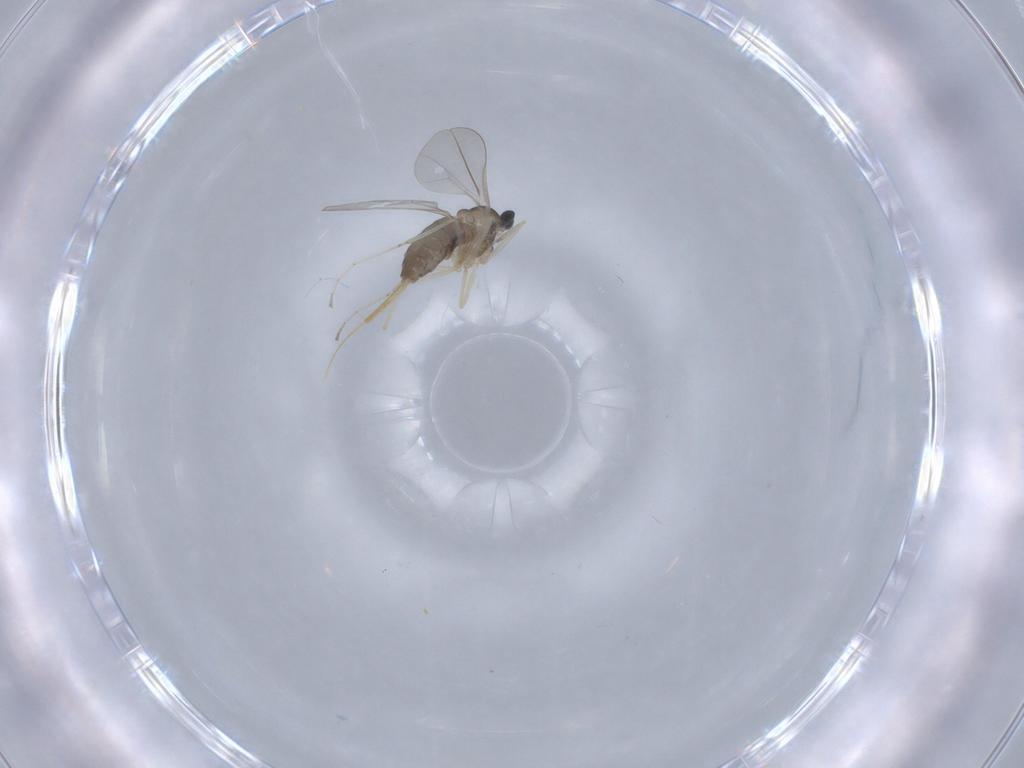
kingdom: Animalia
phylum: Arthropoda
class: Insecta
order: Diptera
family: Cecidomyiidae
